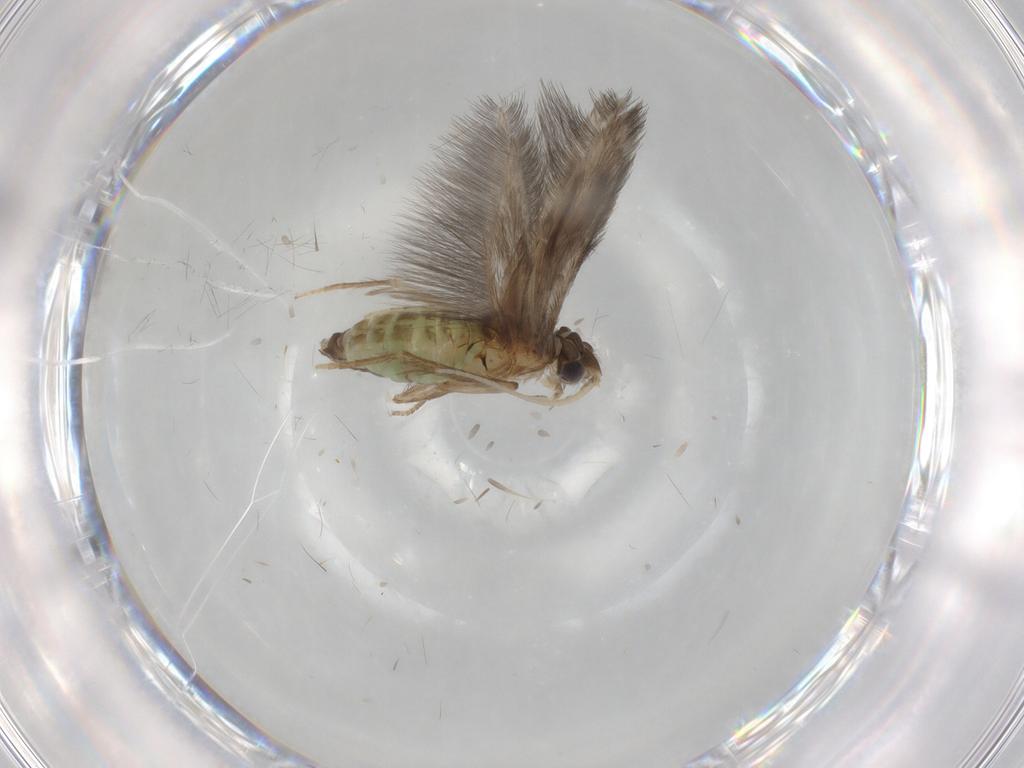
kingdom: Animalia
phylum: Arthropoda
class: Insecta
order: Trichoptera
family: Hydroptilidae
